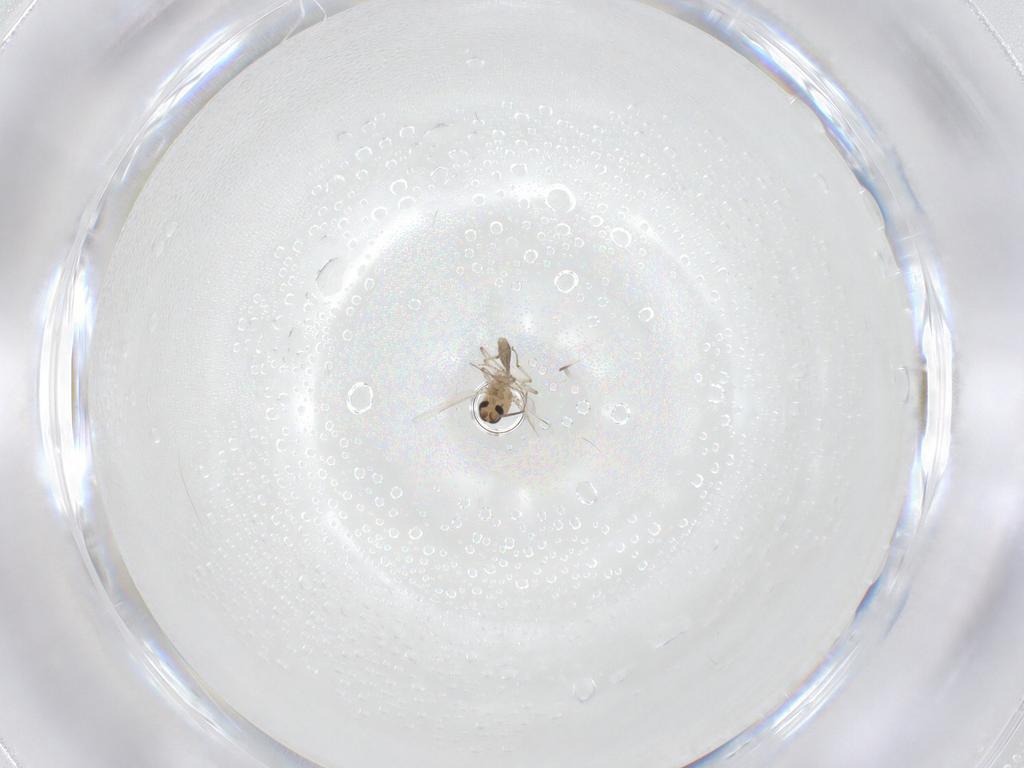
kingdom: Animalia
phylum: Arthropoda
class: Insecta
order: Diptera
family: Ceratopogonidae
